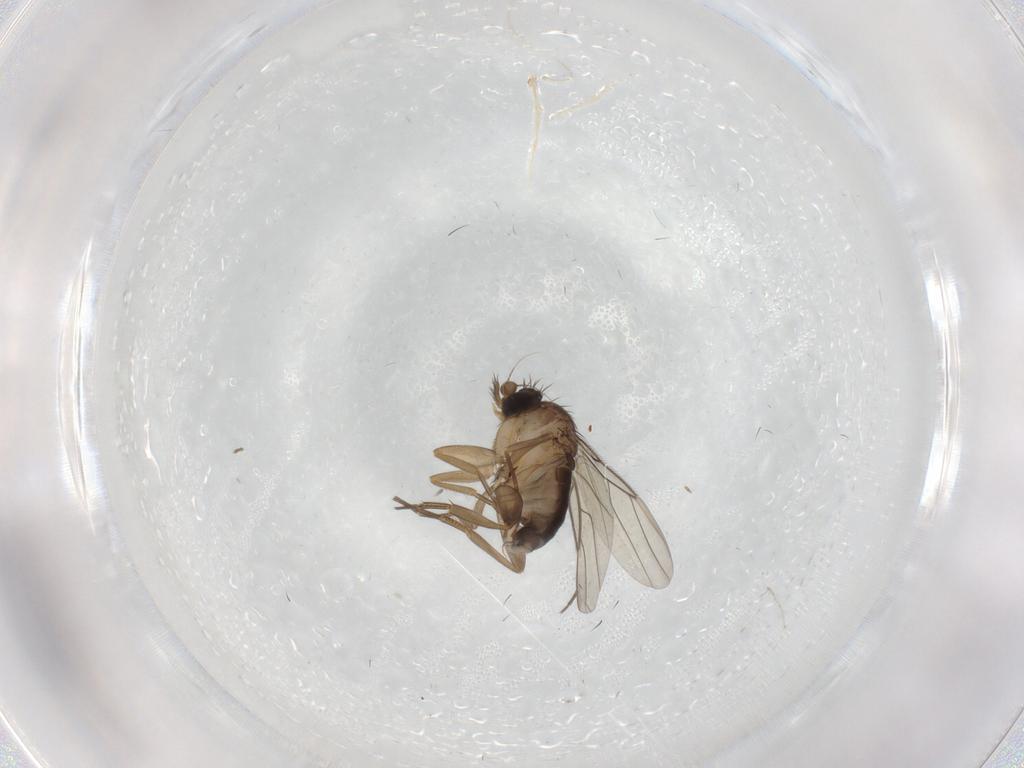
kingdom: Animalia
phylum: Arthropoda
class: Insecta
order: Diptera
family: Phoridae
